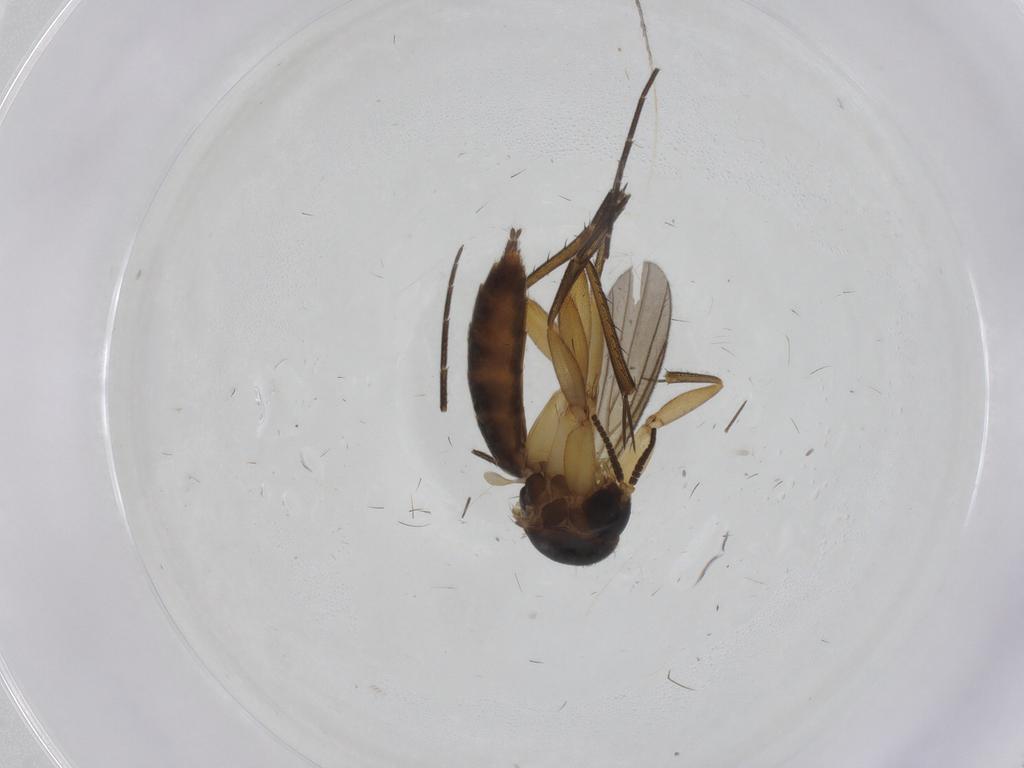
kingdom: Animalia
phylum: Arthropoda
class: Insecta
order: Diptera
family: Mycetophilidae
